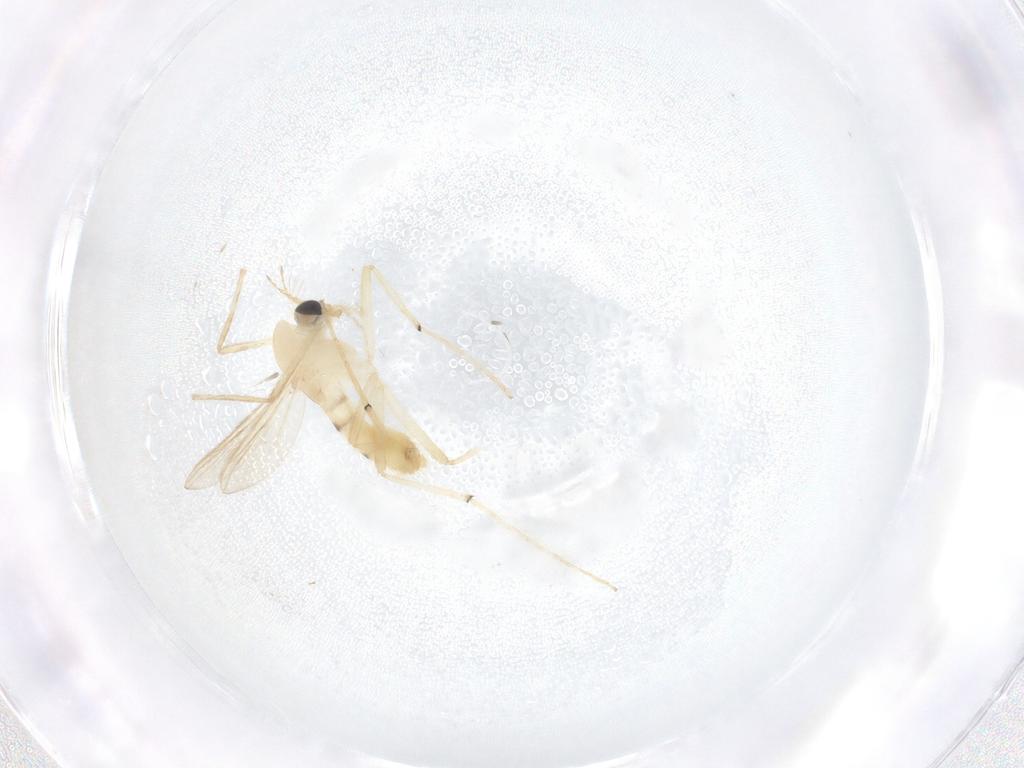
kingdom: Animalia
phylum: Arthropoda
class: Insecta
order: Diptera
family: Chironomidae
